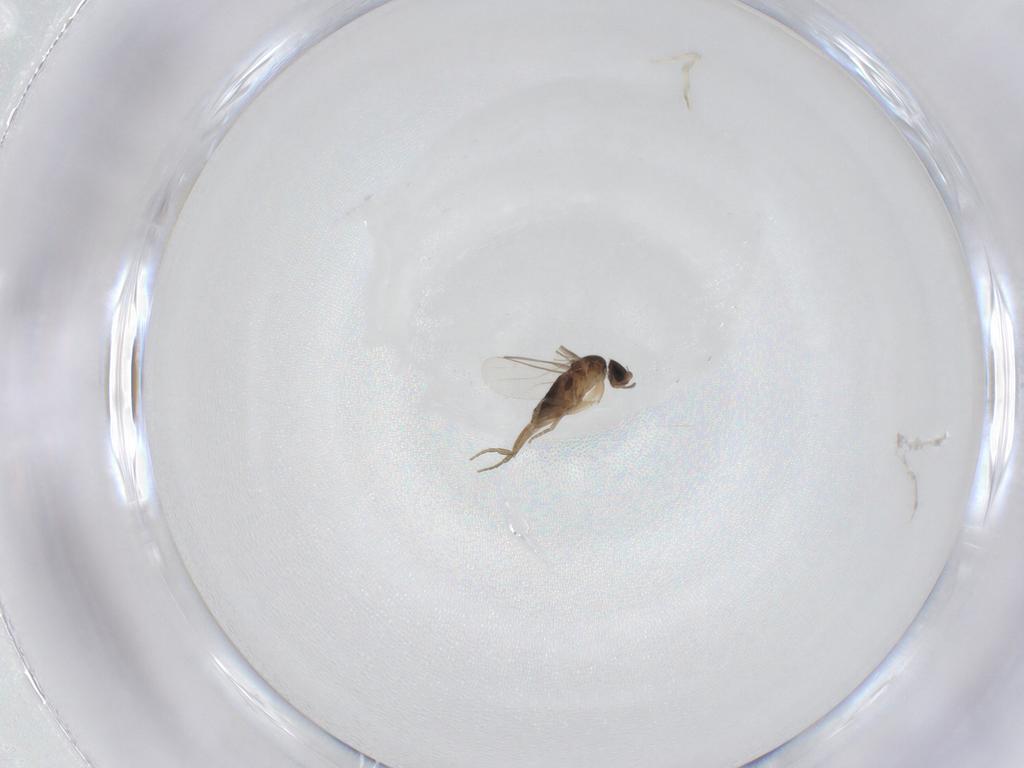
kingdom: Animalia
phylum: Arthropoda
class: Insecta
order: Diptera
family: Phoridae
